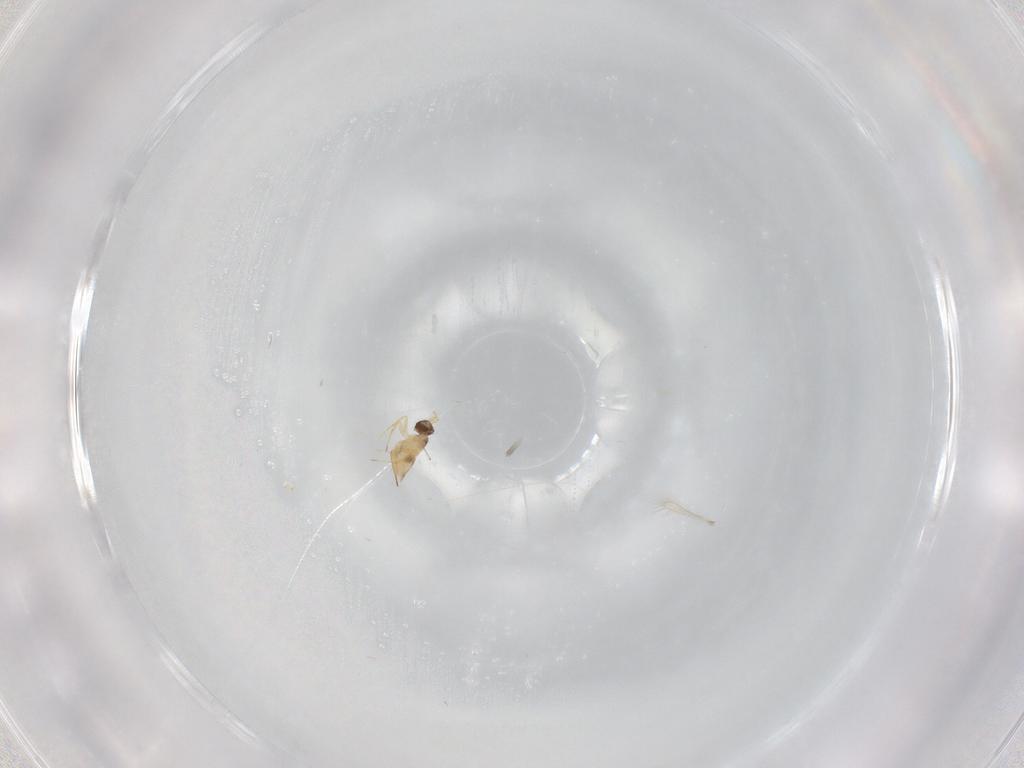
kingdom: Animalia
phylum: Arthropoda
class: Insecta
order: Hymenoptera
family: Mymaridae
